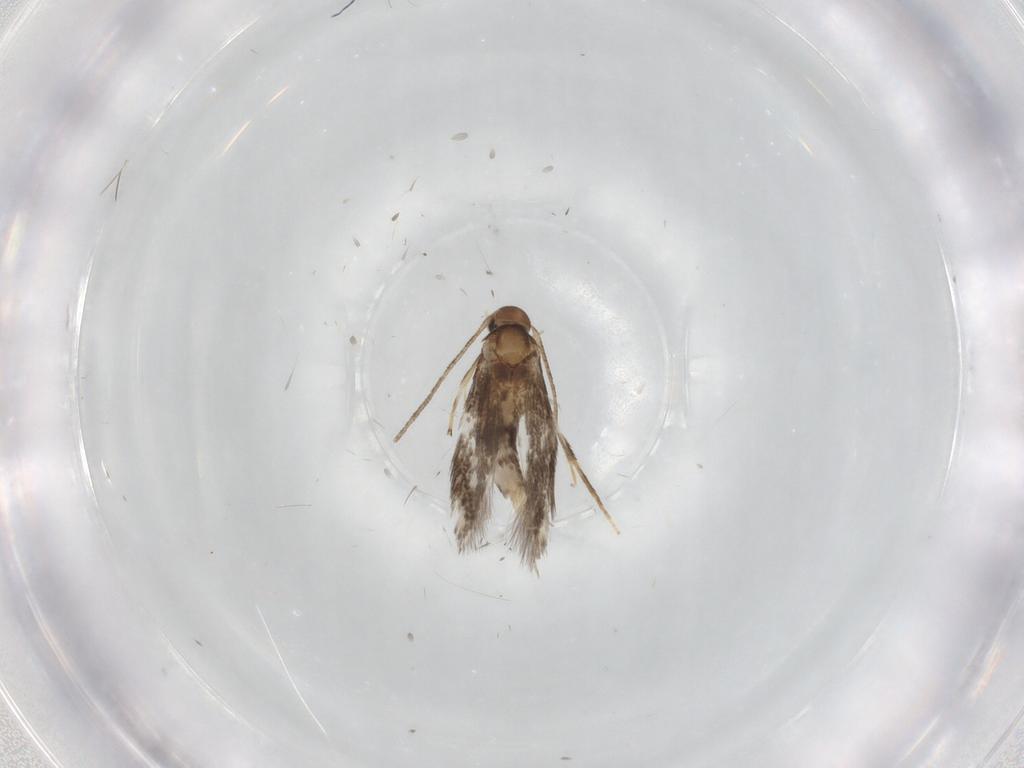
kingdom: Animalia
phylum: Arthropoda
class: Insecta
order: Lepidoptera
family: Elachistidae
